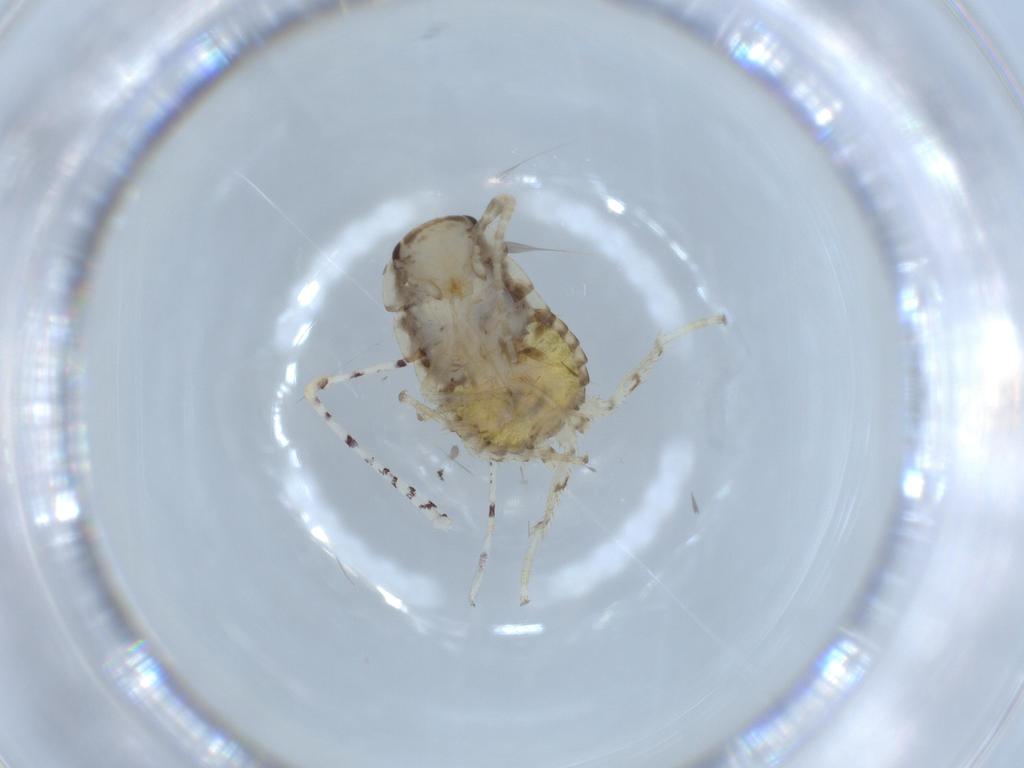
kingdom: Animalia
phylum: Arthropoda
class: Insecta
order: Blattodea
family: Ectobiidae
